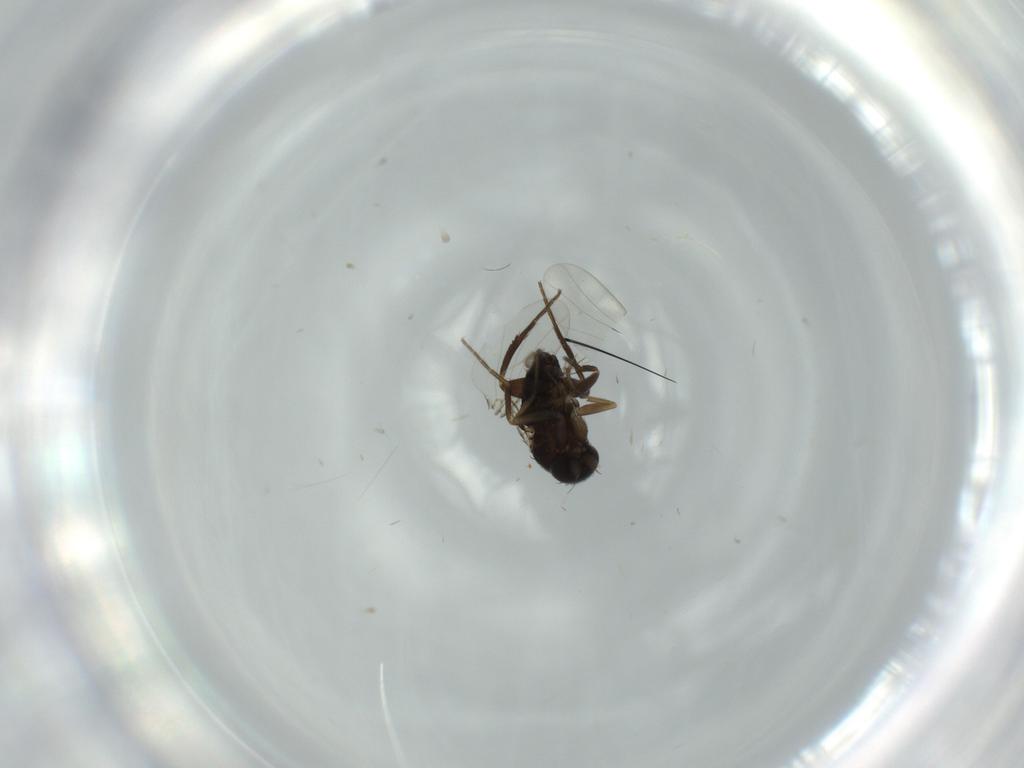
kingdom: Animalia
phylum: Arthropoda
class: Insecta
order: Diptera
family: Phoridae
